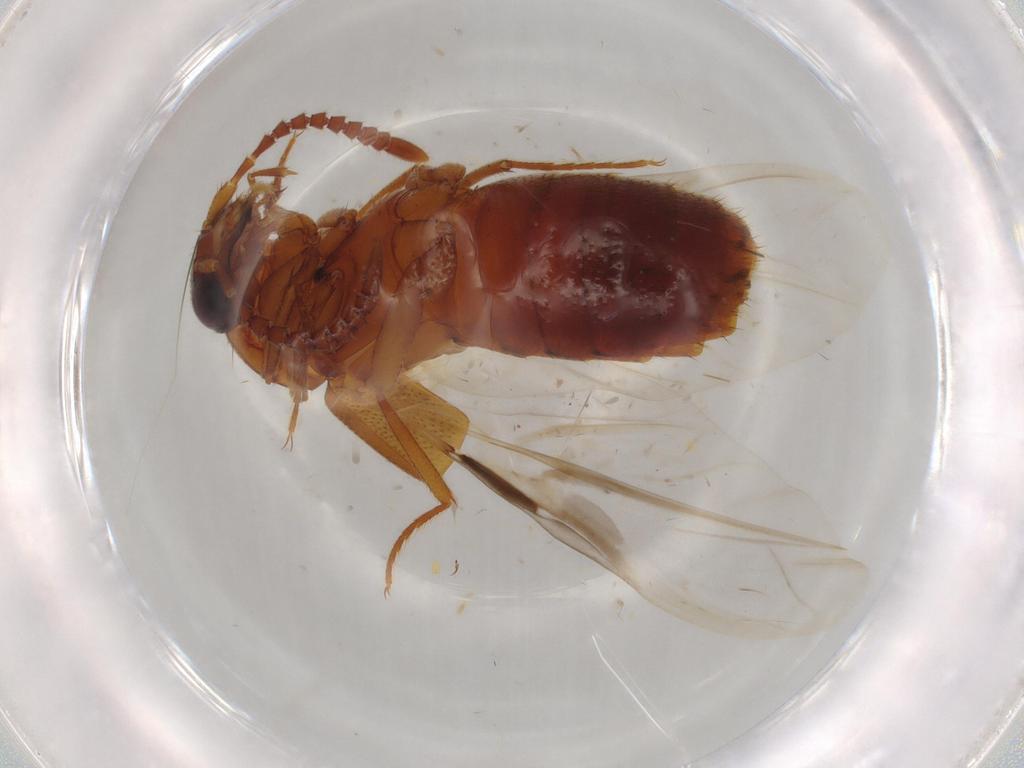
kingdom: Animalia
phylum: Arthropoda
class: Insecta
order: Coleoptera
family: Staphylinidae
